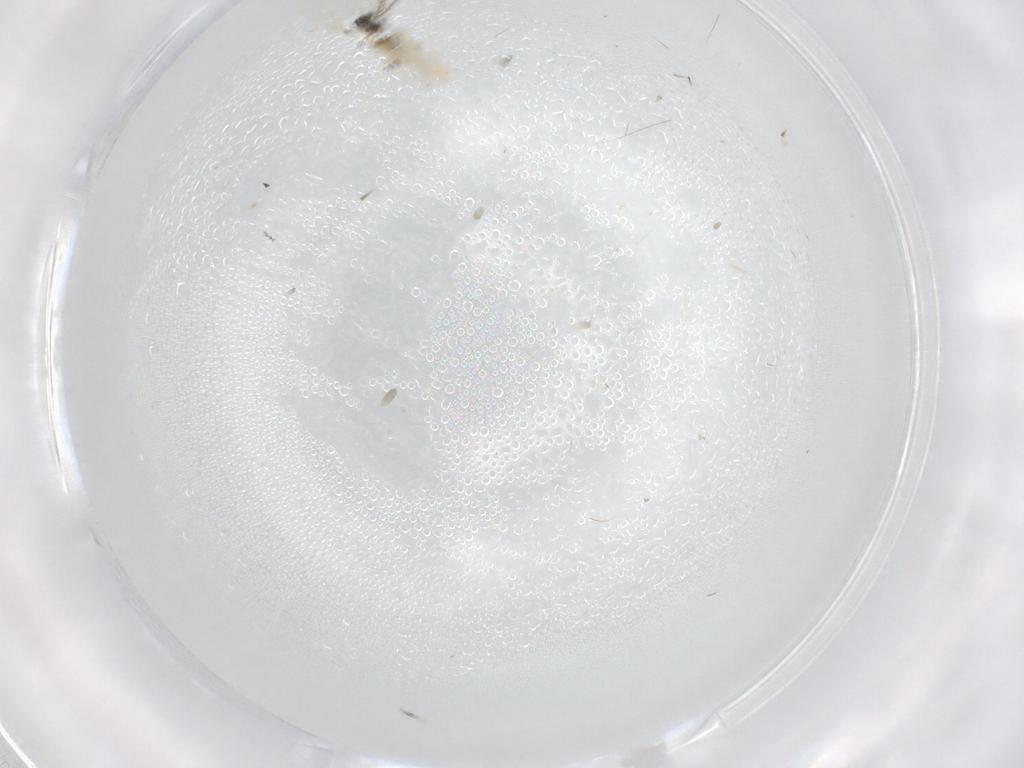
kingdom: Animalia
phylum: Arthropoda
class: Insecta
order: Diptera
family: Cecidomyiidae
